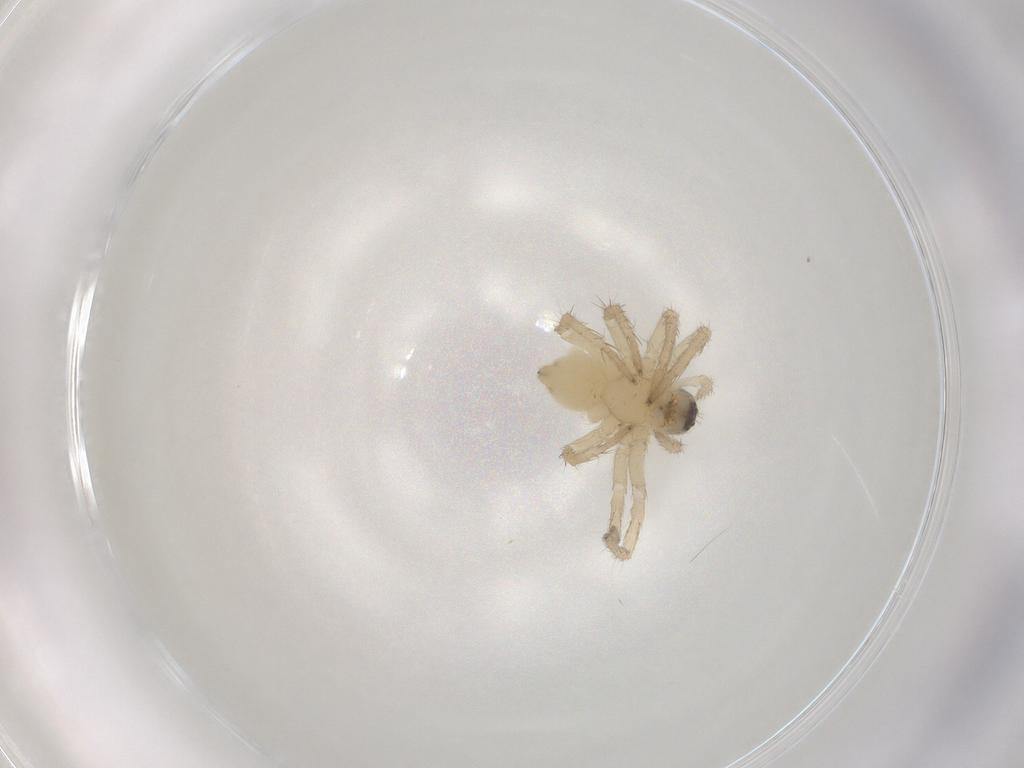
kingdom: Animalia
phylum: Arthropoda
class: Arachnida
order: Araneae
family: Lycosidae
